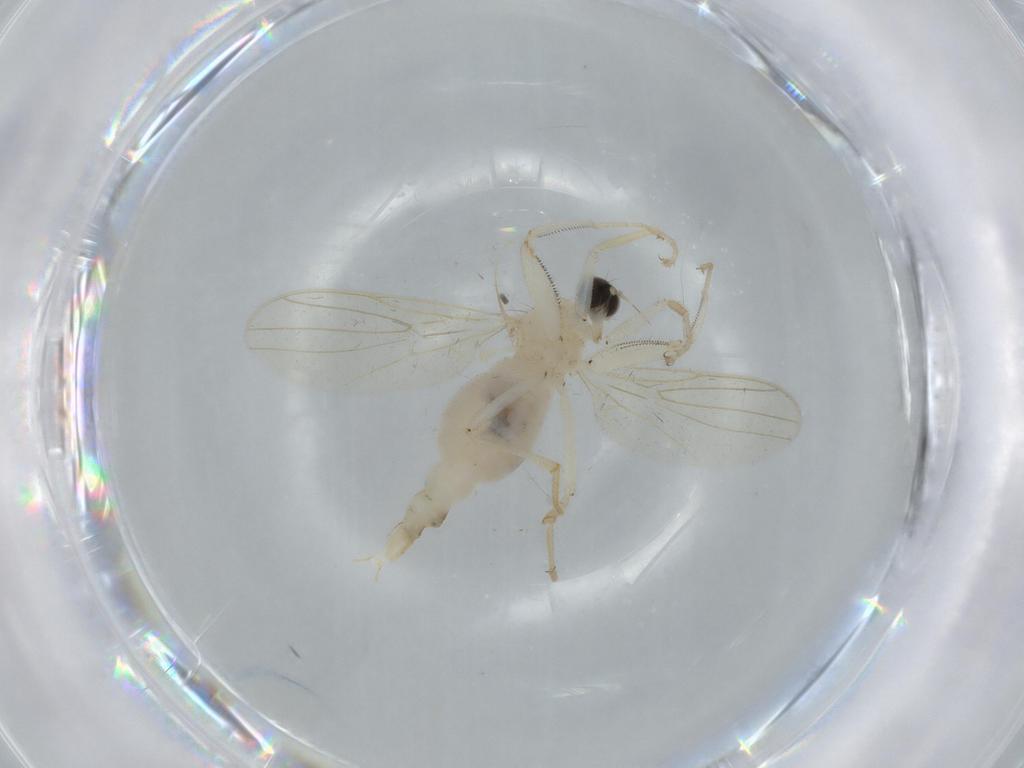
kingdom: Animalia
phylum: Arthropoda
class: Insecta
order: Diptera
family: Hybotidae
